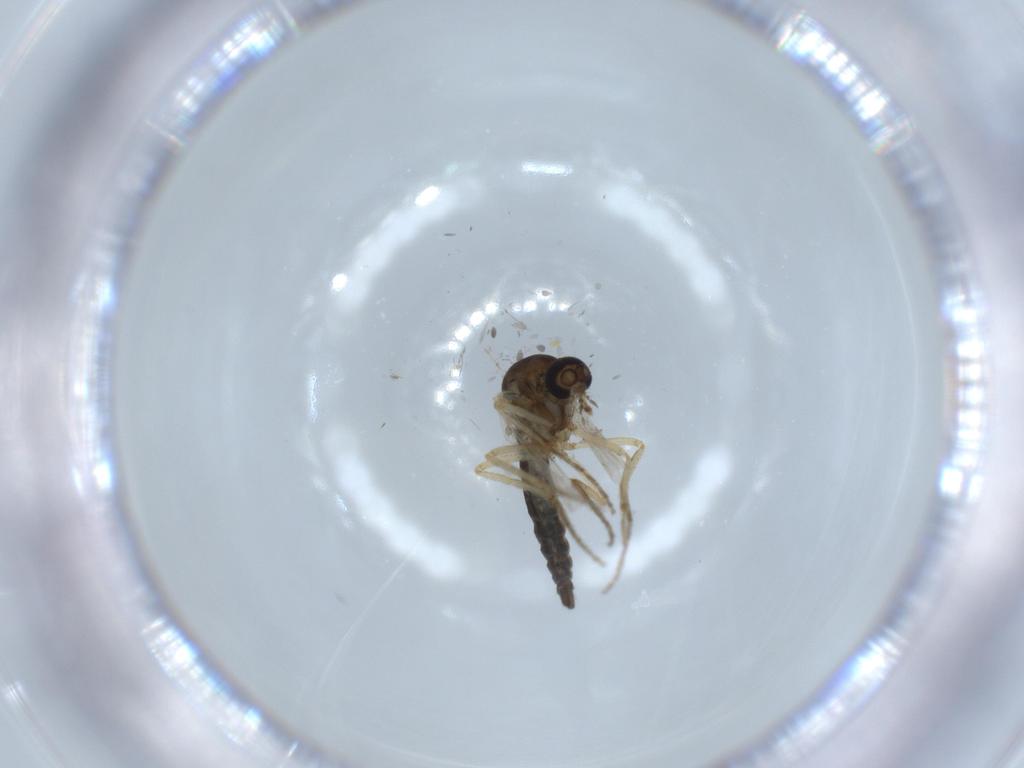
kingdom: Animalia
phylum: Arthropoda
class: Insecta
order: Diptera
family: Ceratopogonidae
